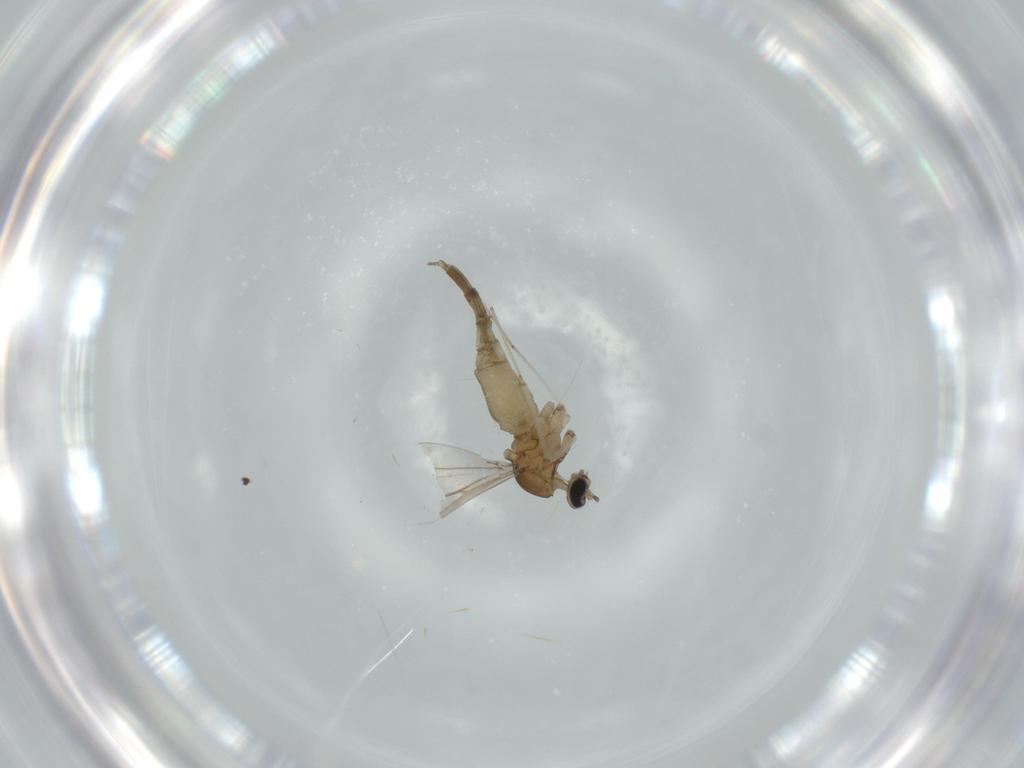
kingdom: Animalia
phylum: Arthropoda
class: Insecta
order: Diptera
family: Cecidomyiidae
